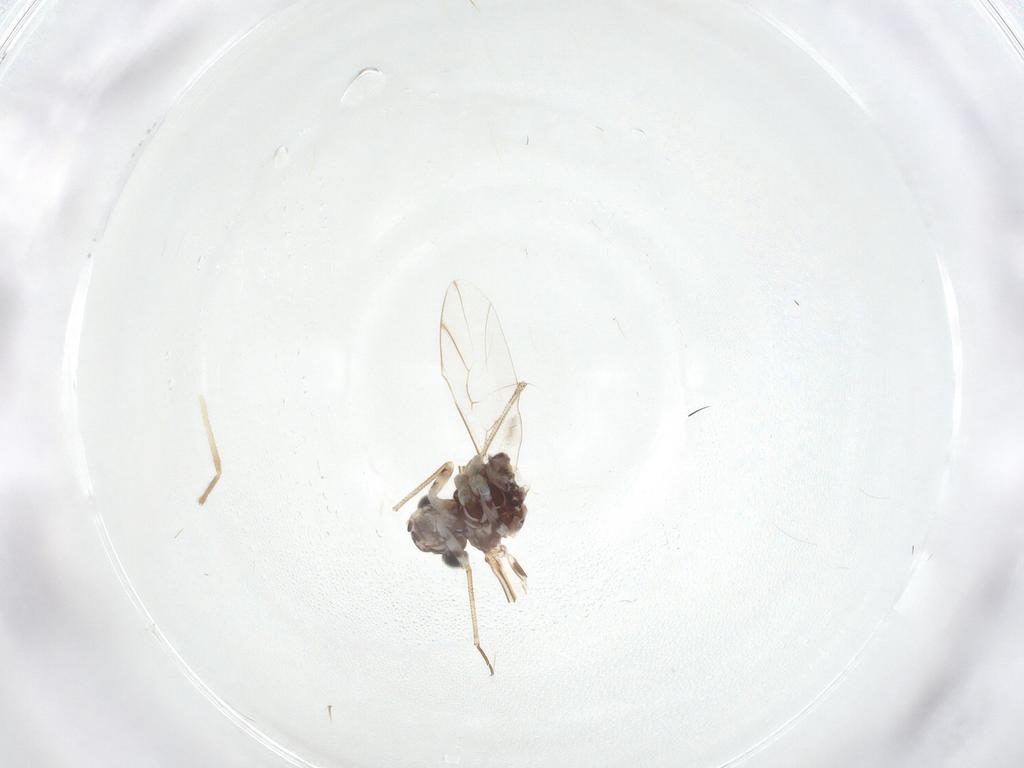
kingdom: Animalia
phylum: Arthropoda
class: Insecta
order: Psocodea
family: Myopsocidae
